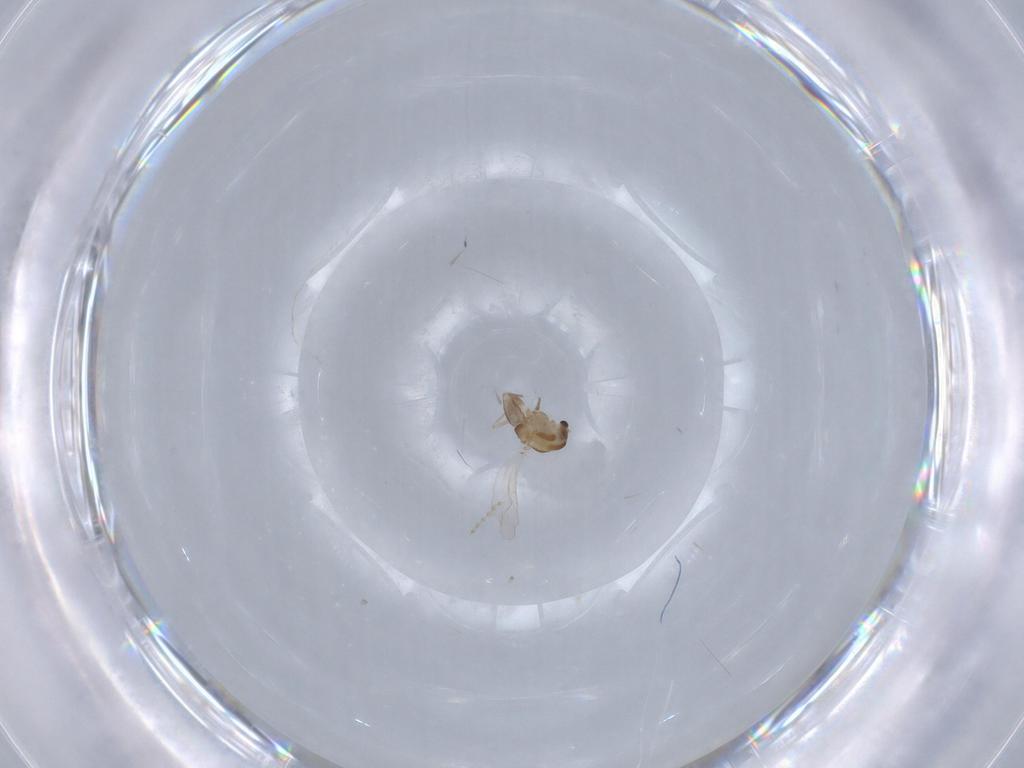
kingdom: Animalia
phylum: Arthropoda
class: Insecta
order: Diptera
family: Chironomidae
